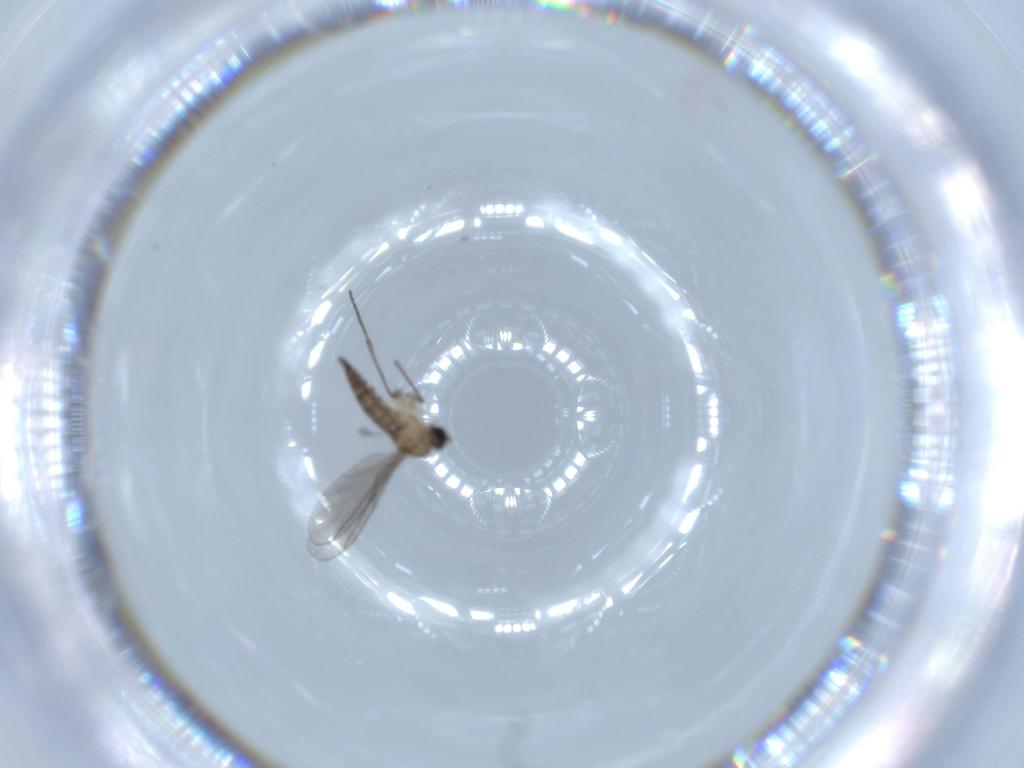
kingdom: Animalia
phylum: Arthropoda
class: Insecta
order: Diptera
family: Sciaridae
